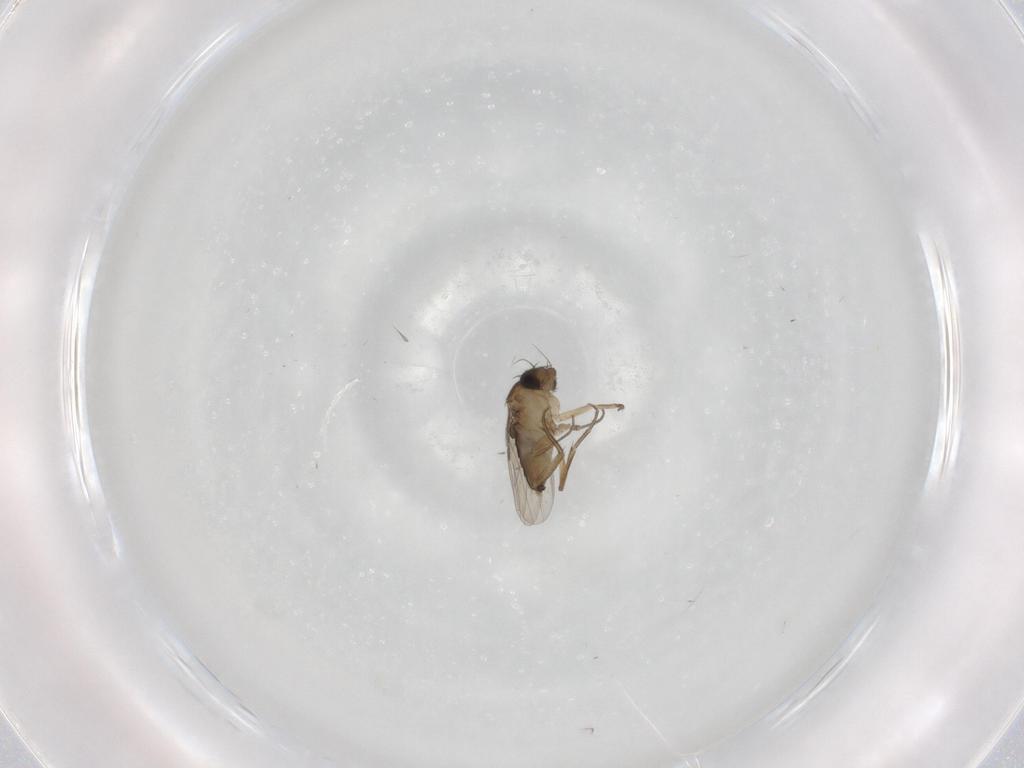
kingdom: Animalia
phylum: Arthropoda
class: Insecta
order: Diptera
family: Phoridae
